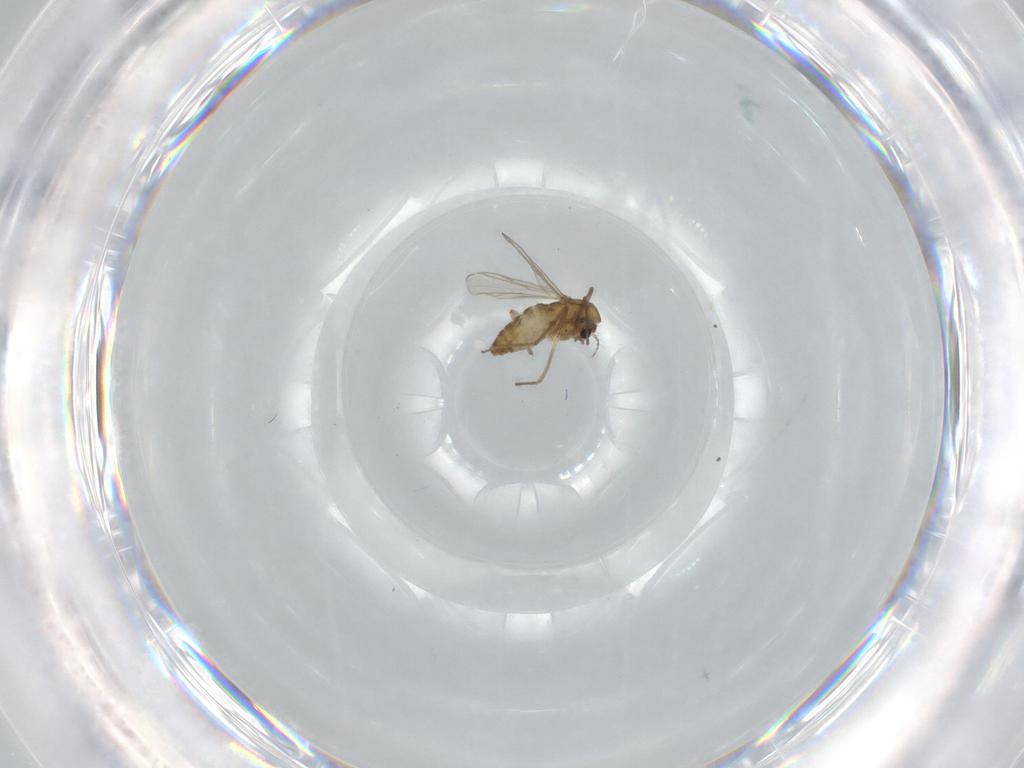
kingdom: Animalia
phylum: Arthropoda
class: Insecta
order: Diptera
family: Chironomidae
